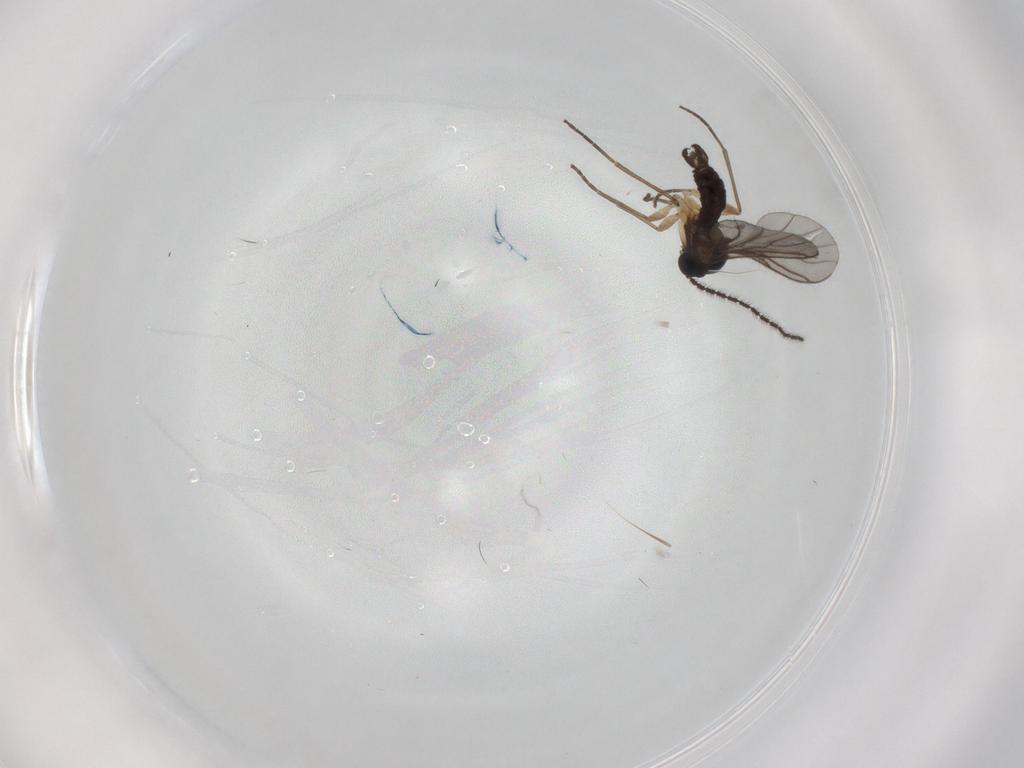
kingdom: Animalia
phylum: Arthropoda
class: Insecta
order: Diptera
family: Sciaridae
